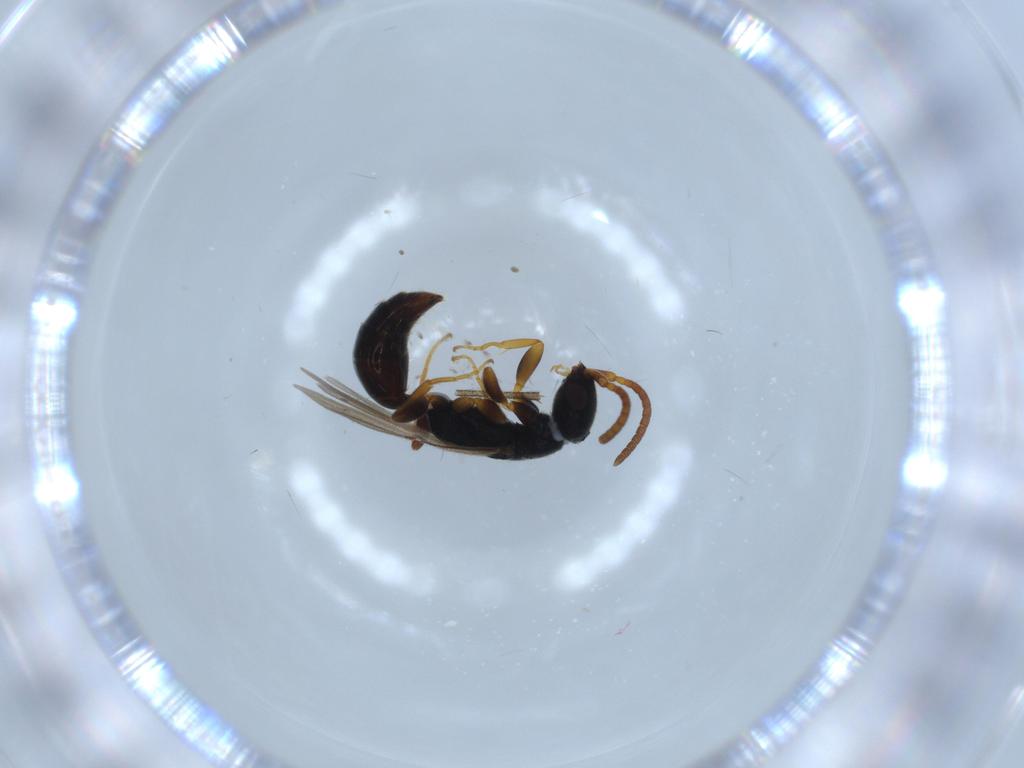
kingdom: Animalia
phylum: Arthropoda
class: Insecta
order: Hymenoptera
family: Bethylidae
